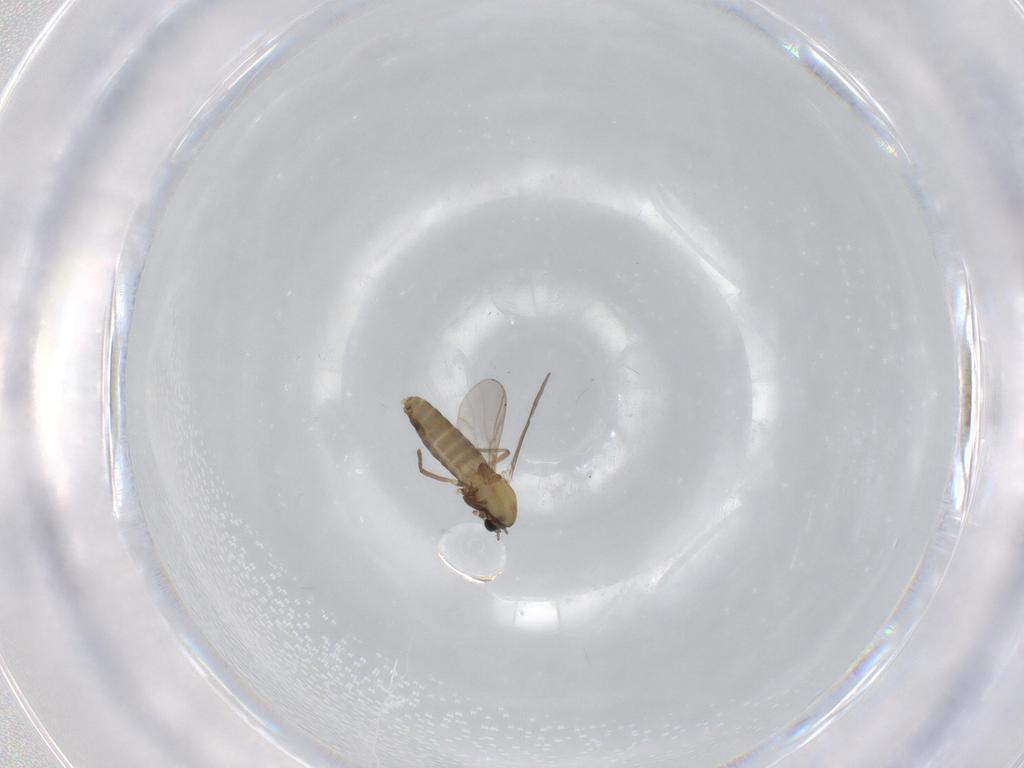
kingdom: Animalia
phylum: Arthropoda
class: Insecta
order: Diptera
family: Chironomidae
